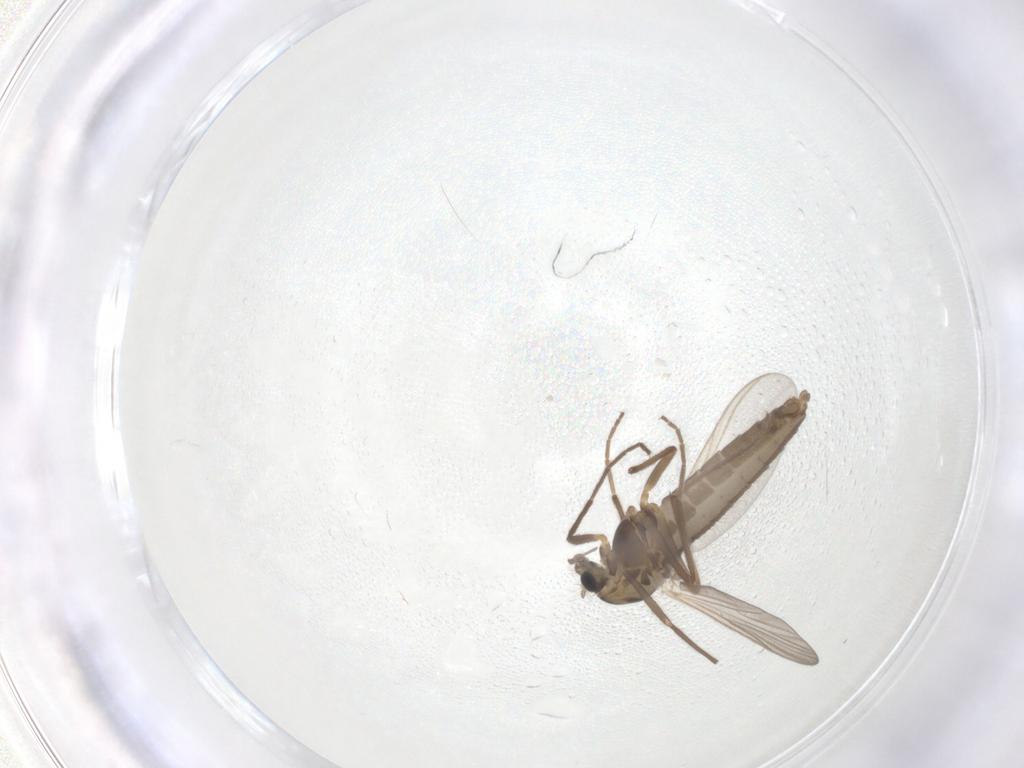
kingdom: Animalia
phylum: Arthropoda
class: Insecta
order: Diptera
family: Chironomidae
